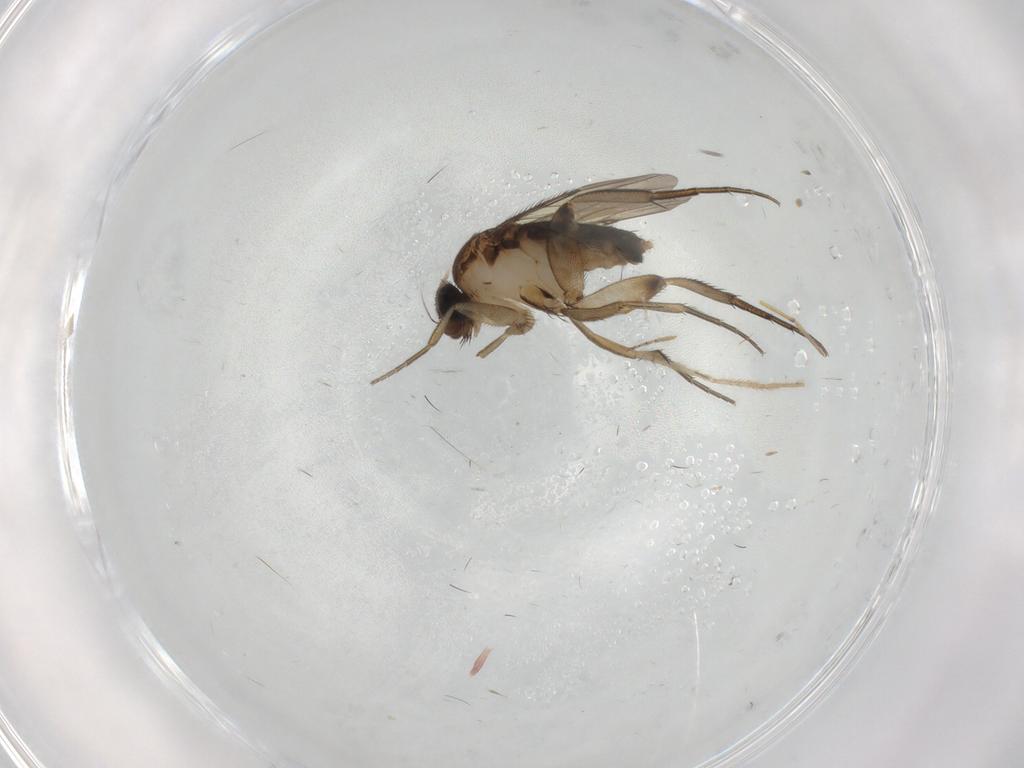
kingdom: Animalia
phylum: Arthropoda
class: Insecta
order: Diptera
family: Phoridae
